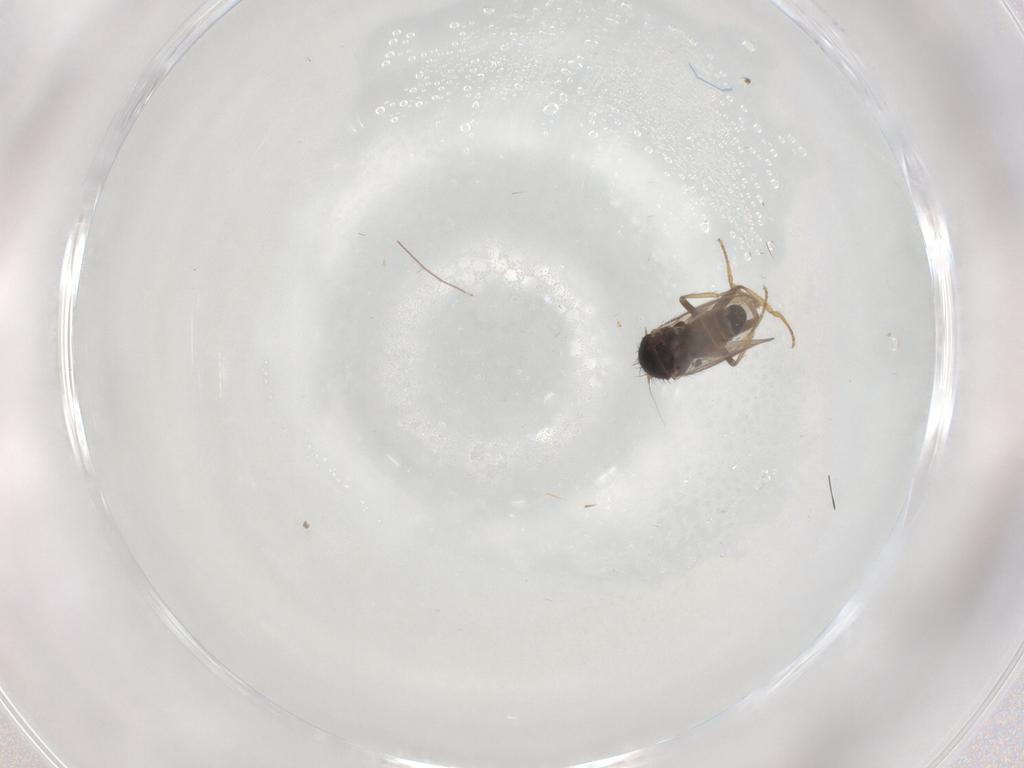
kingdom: Animalia
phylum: Arthropoda
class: Insecta
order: Diptera
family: Chironomidae
